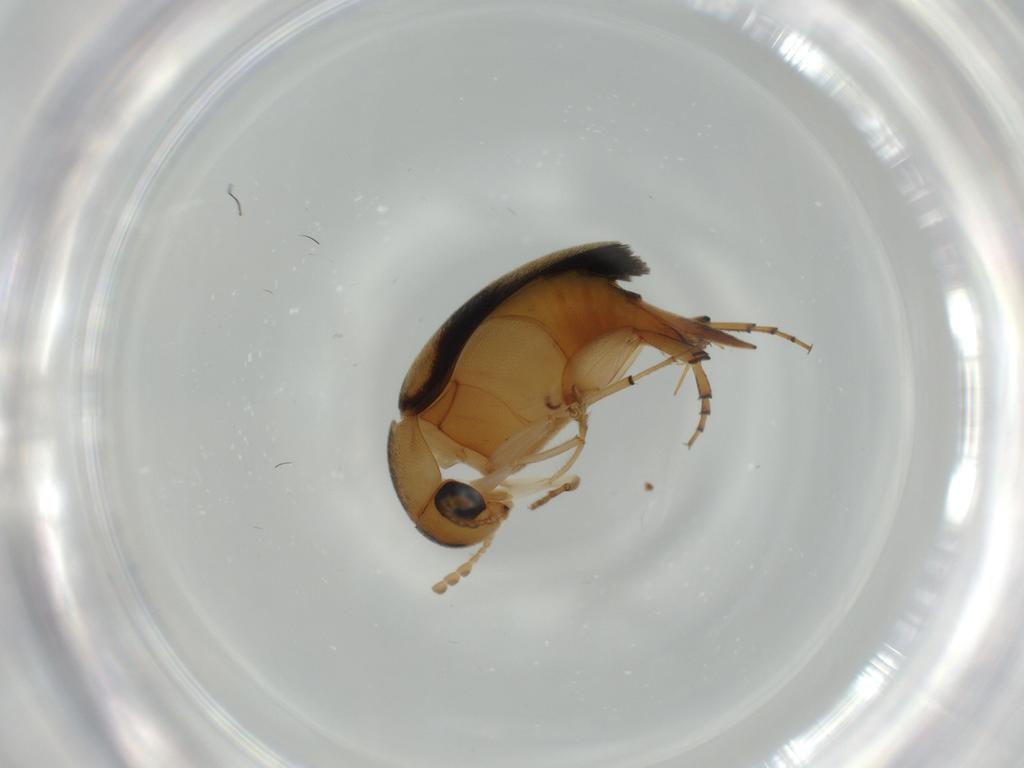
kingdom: Animalia
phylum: Arthropoda
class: Insecta
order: Coleoptera
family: Mordellidae
